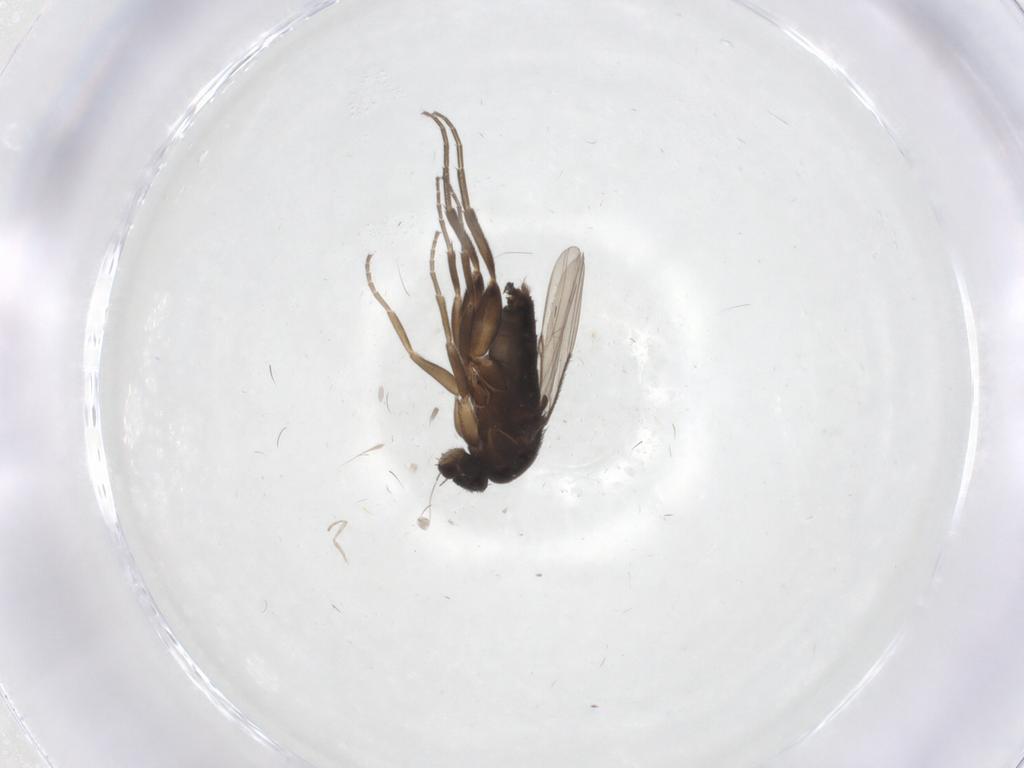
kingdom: Animalia
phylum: Arthropoda
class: Insecta
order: Diptera
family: Phoridae
